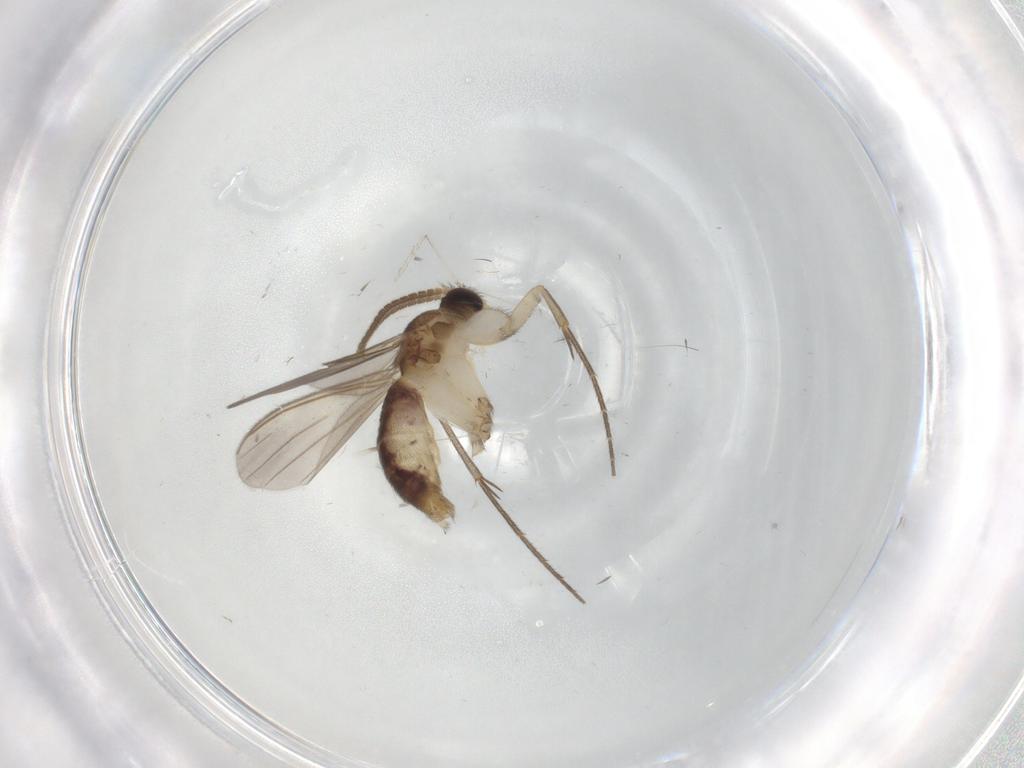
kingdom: Animalia
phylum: Arthropoda
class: Insecta
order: Diptera
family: Mycetophilidae
